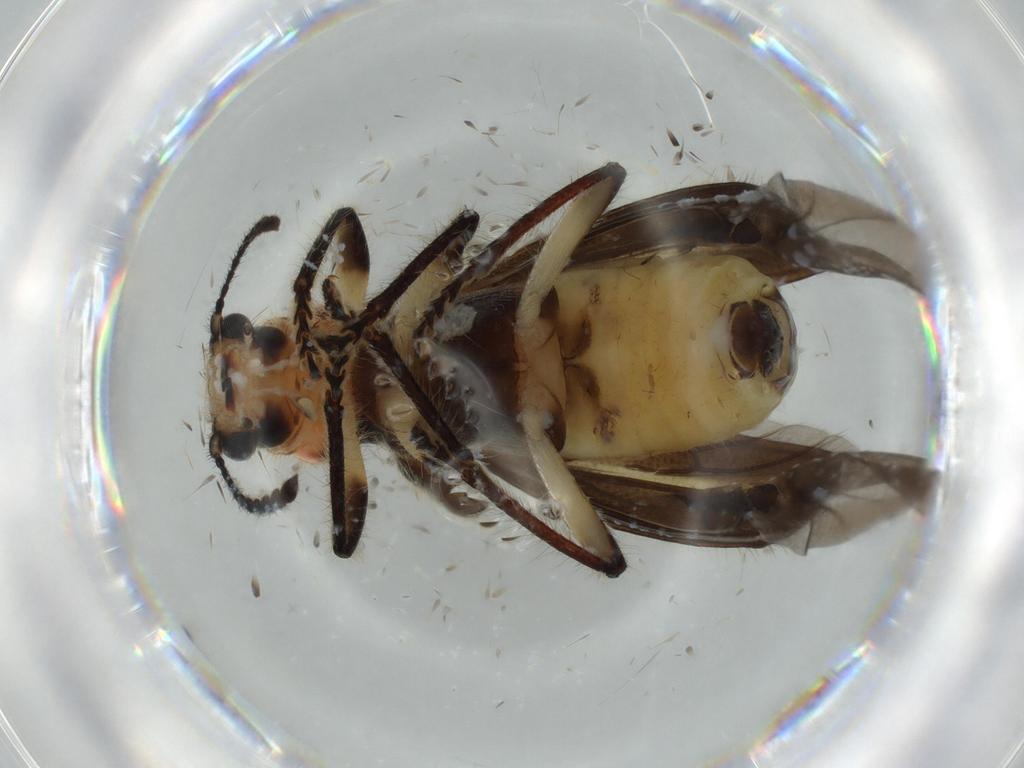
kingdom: Animalia
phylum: Arthropoda
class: Insecta
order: Coleoptera
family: Cleridae
